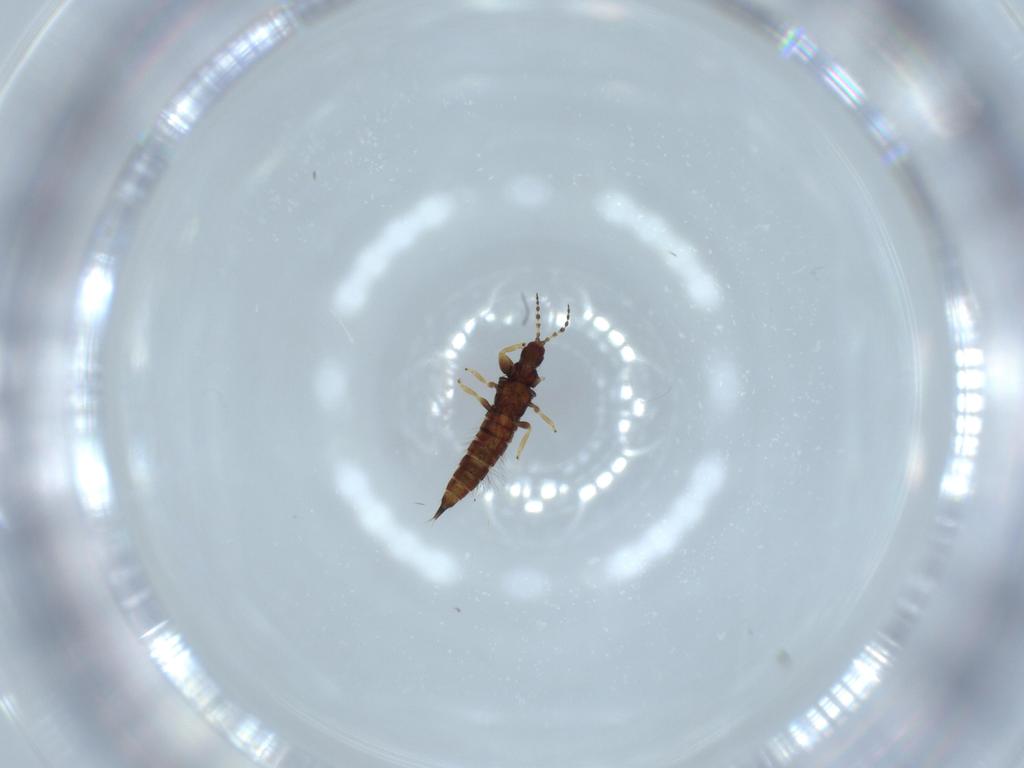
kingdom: Animalia
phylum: Arthropoda
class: Insecta
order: Thysanoptera
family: Phlaeothripidae
